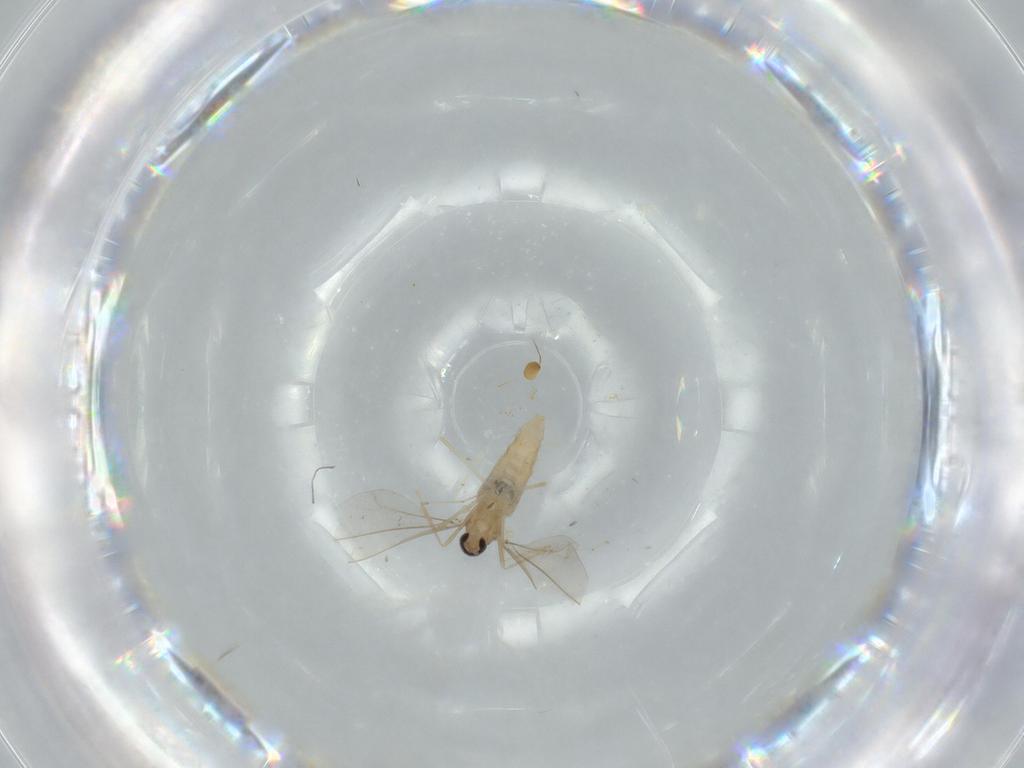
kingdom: Animalia
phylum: Arthropoda
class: Insecta
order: Diptera
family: Cecidomyiidae
